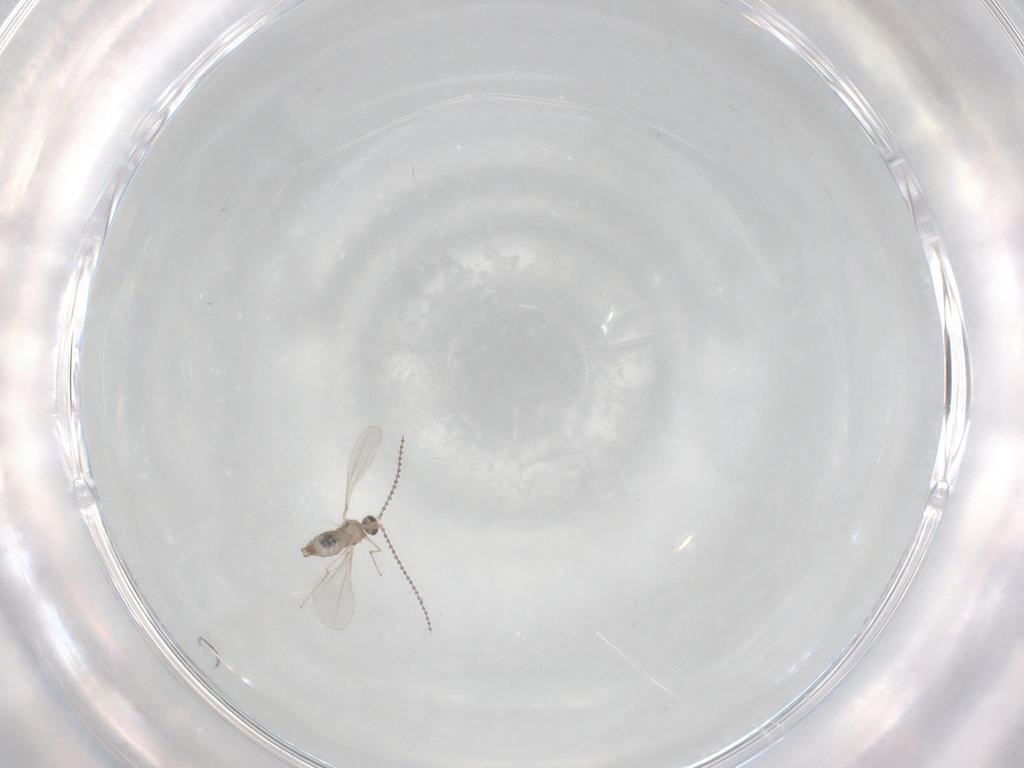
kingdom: Animalia
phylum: Arthropoda
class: Insecta
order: Diptera
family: Cecidomyiidae
